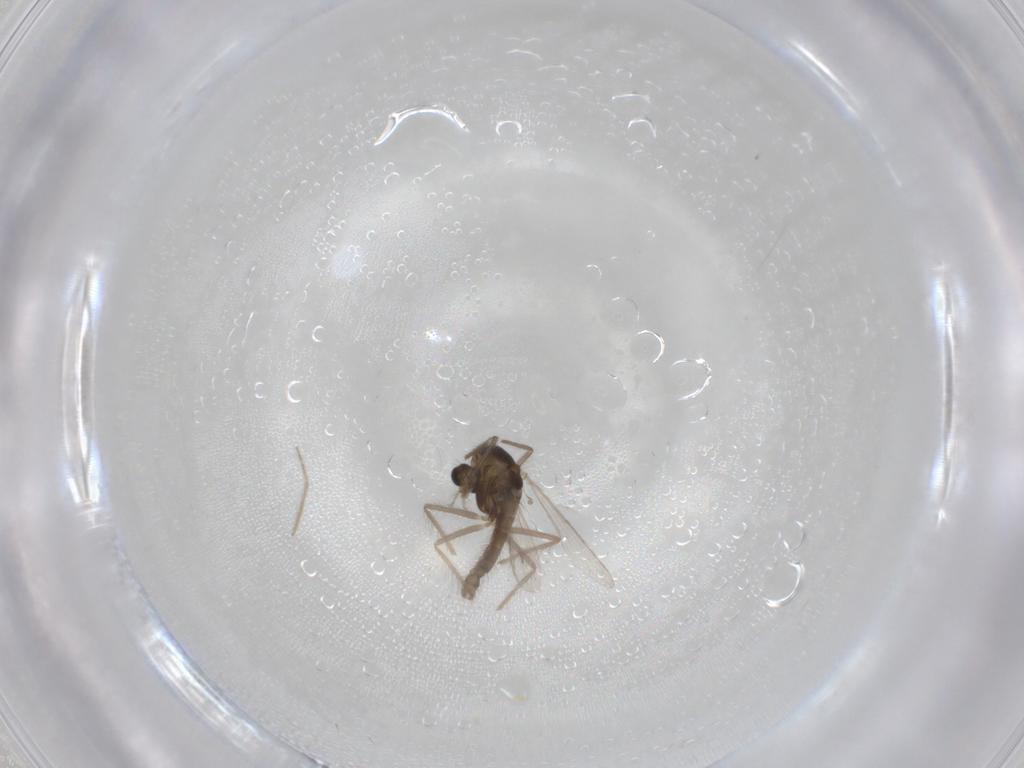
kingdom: Animalia
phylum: Arthropoda
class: Insecta
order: Diptera
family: Chironomidae
